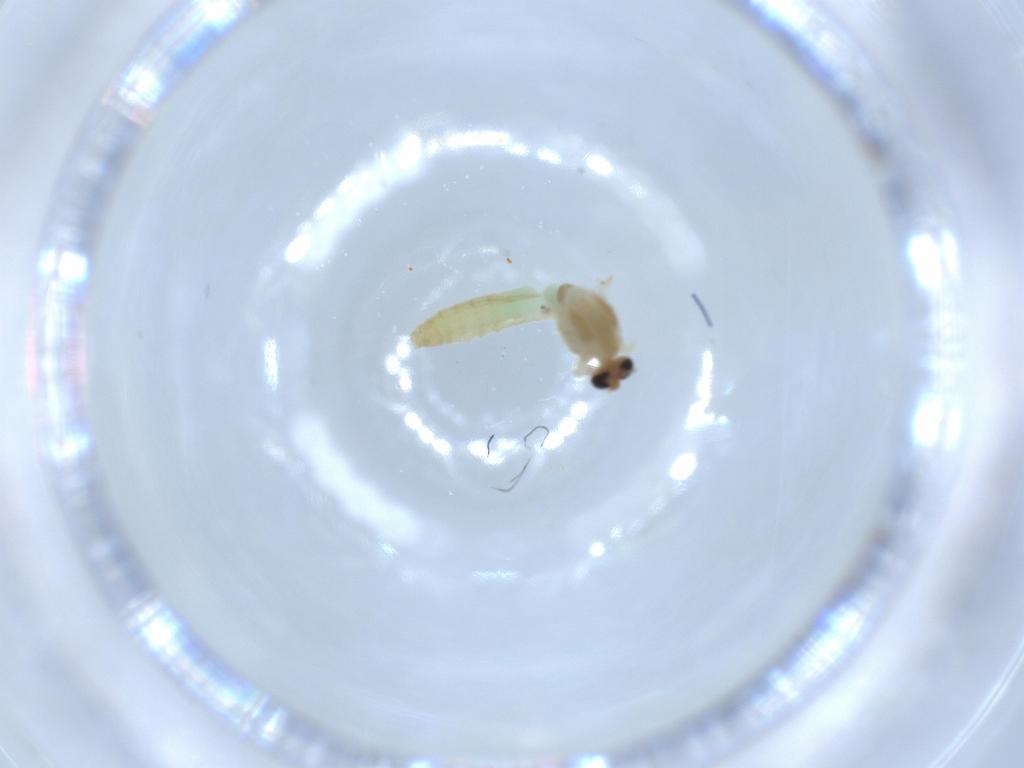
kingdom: Animalia
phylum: Arthropoda
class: Insecta
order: Diptera
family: Chironomidae
